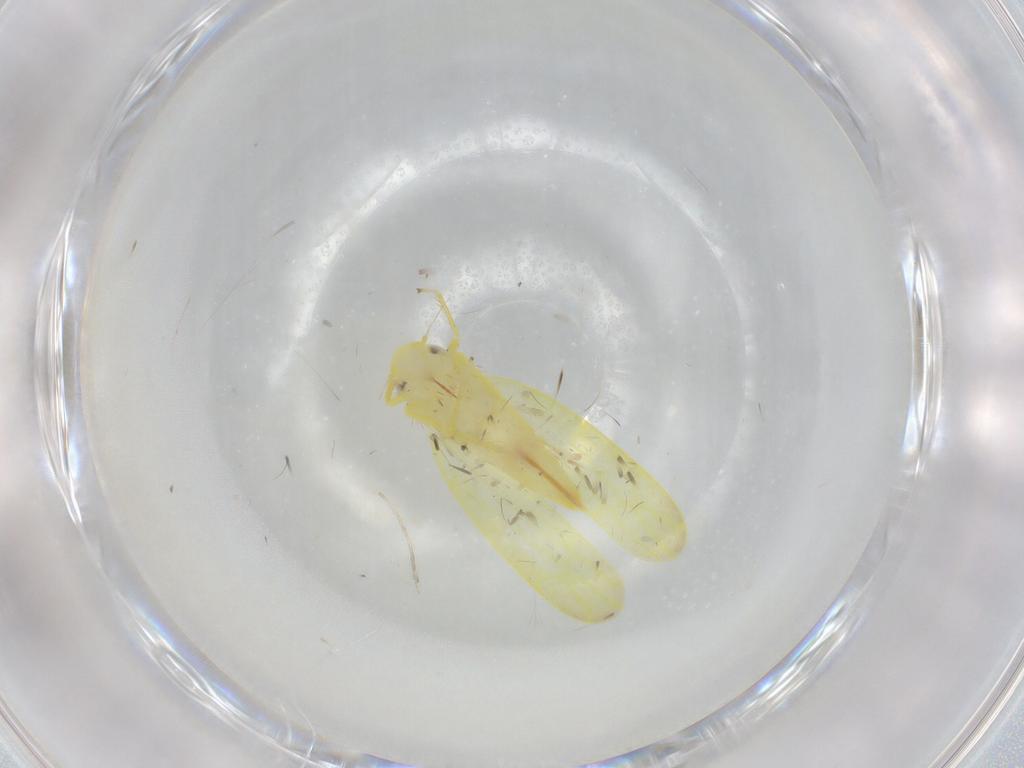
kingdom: Animalia
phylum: Arthropoda
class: Insecta
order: Hemiptera
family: Cicadellidae
